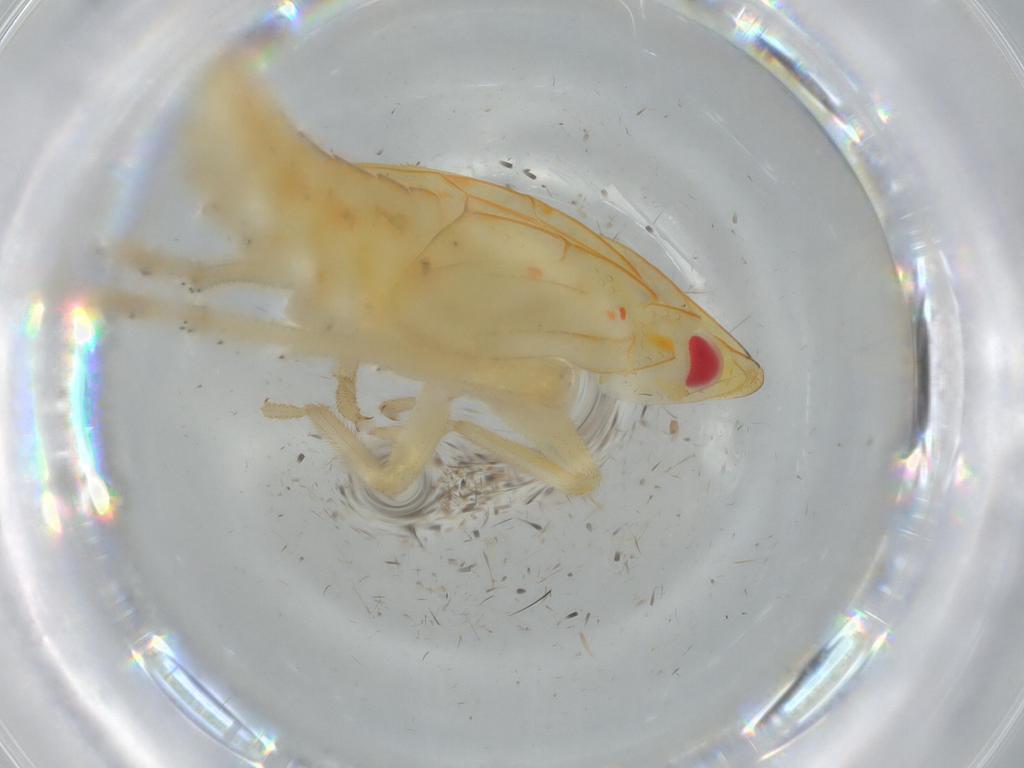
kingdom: Animalia
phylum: Arthropoda
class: Insecta
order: Hemiptera
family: Tropiduchidae
